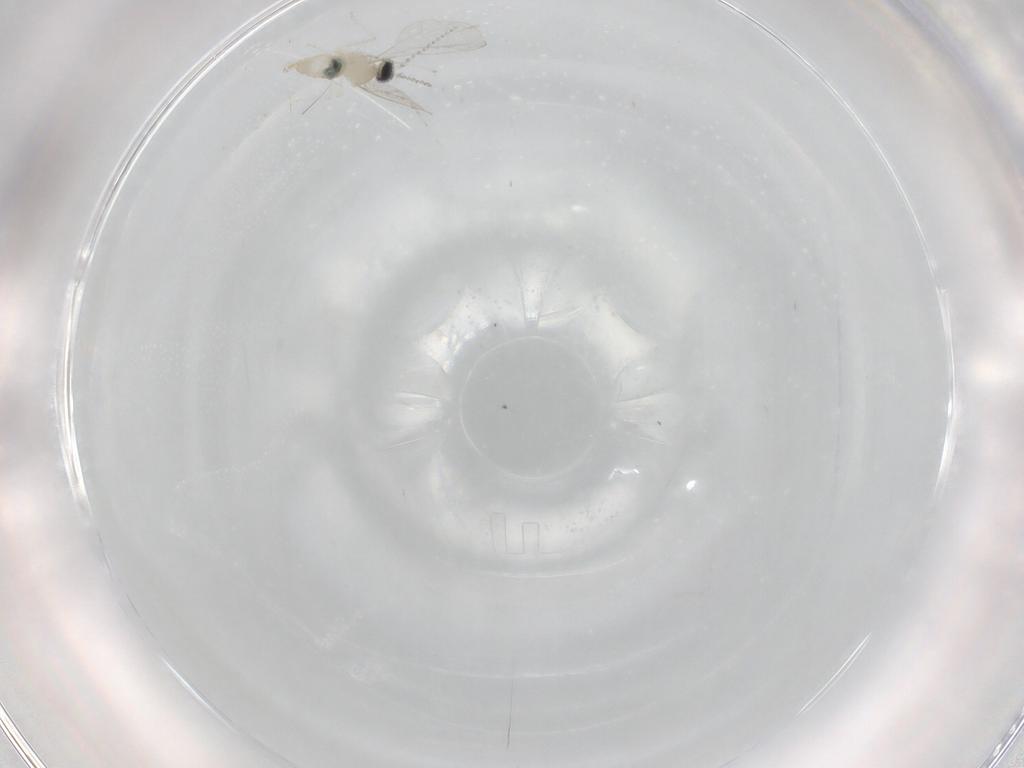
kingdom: Animalia
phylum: Arthropoda
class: Insecta
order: Diptera
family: Cecidomyiidae
